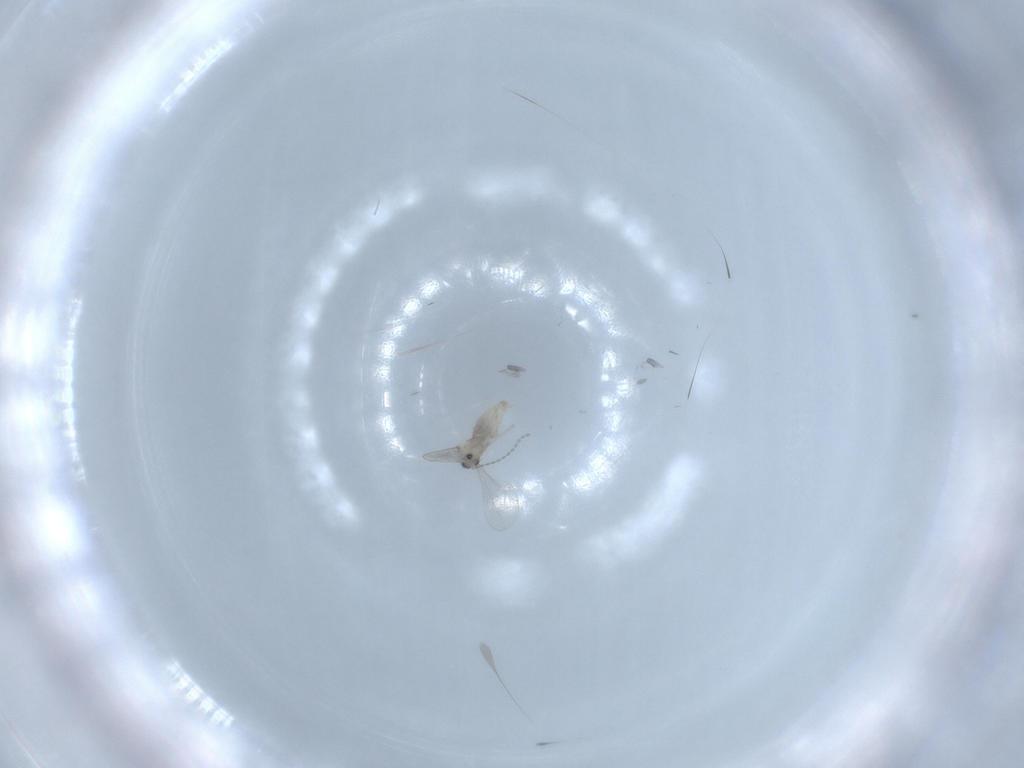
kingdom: Animalia
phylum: Arthropoda
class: Insecta
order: Diptera
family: Cecidomyiidae
